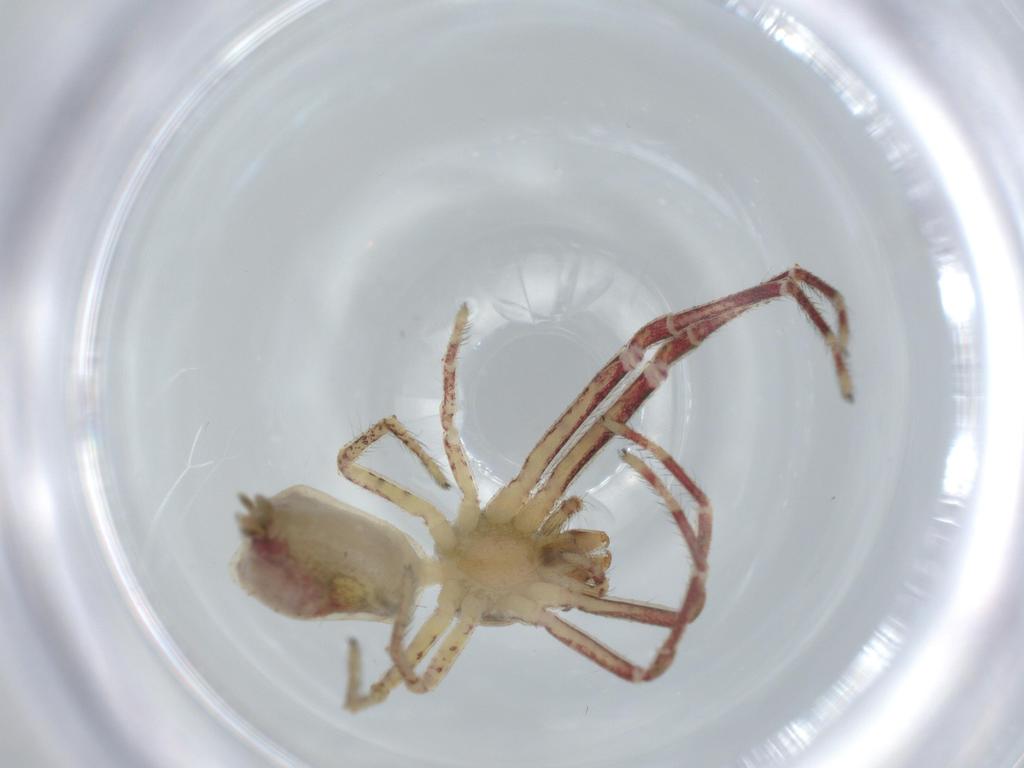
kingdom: Animalia
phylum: Arthropoda
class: Arachnida
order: Araneae
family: Thomisidae
